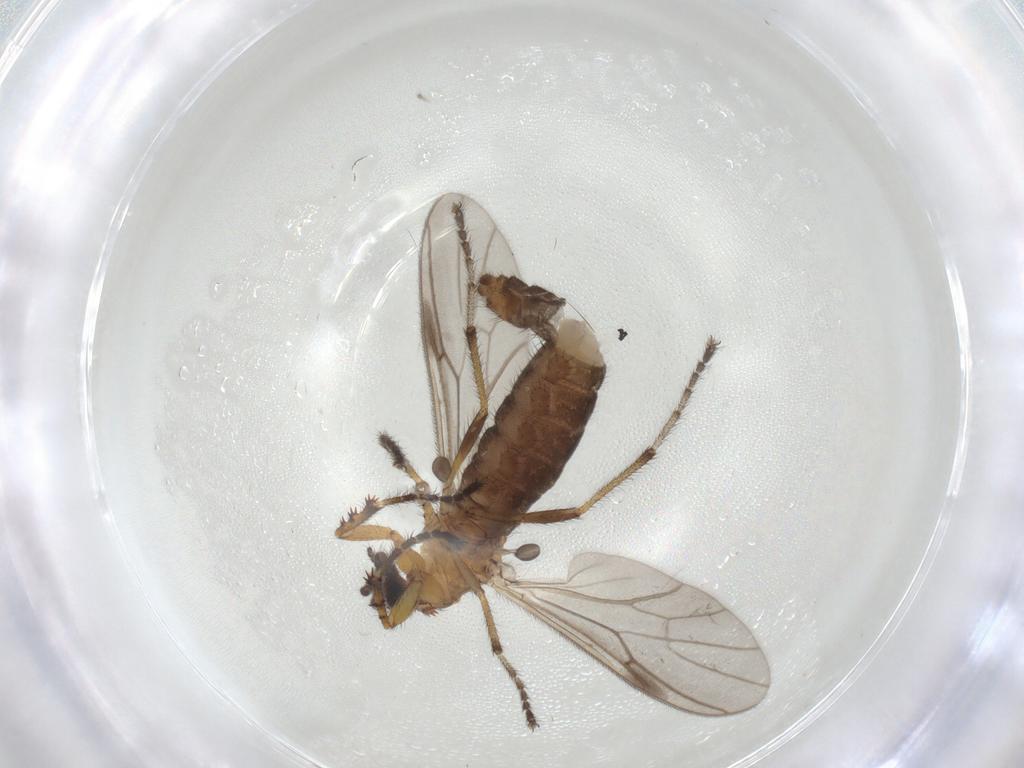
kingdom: Animalia
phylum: Arthropoda
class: Insecta
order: Diptera
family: Bibionidae
